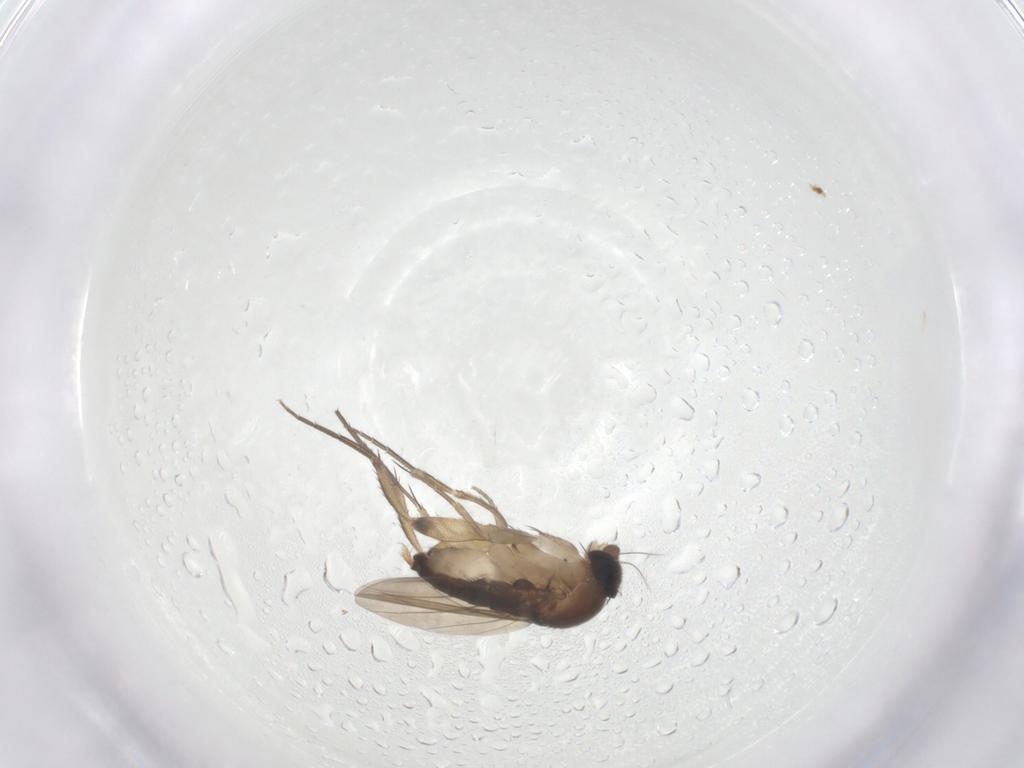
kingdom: Animalia
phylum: Arthropoda
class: Insecta
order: Diptera
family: Phoridae
